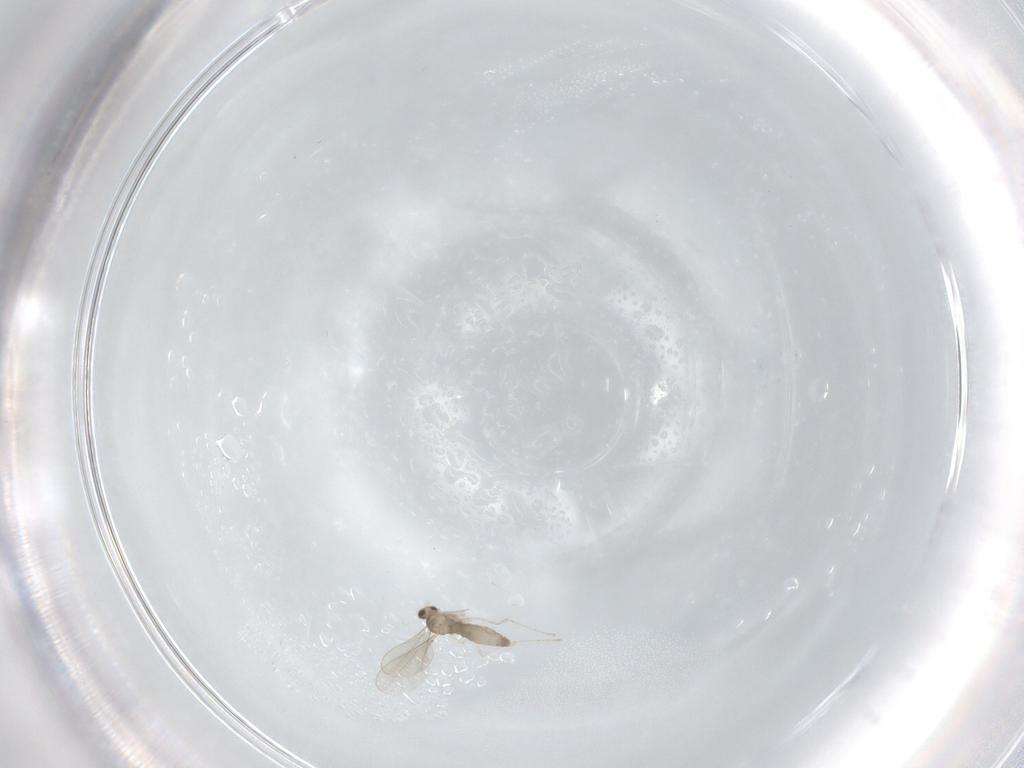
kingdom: Animalia
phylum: Arthropoda
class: Insecta
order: Diptera
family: Cecidomyiidae
